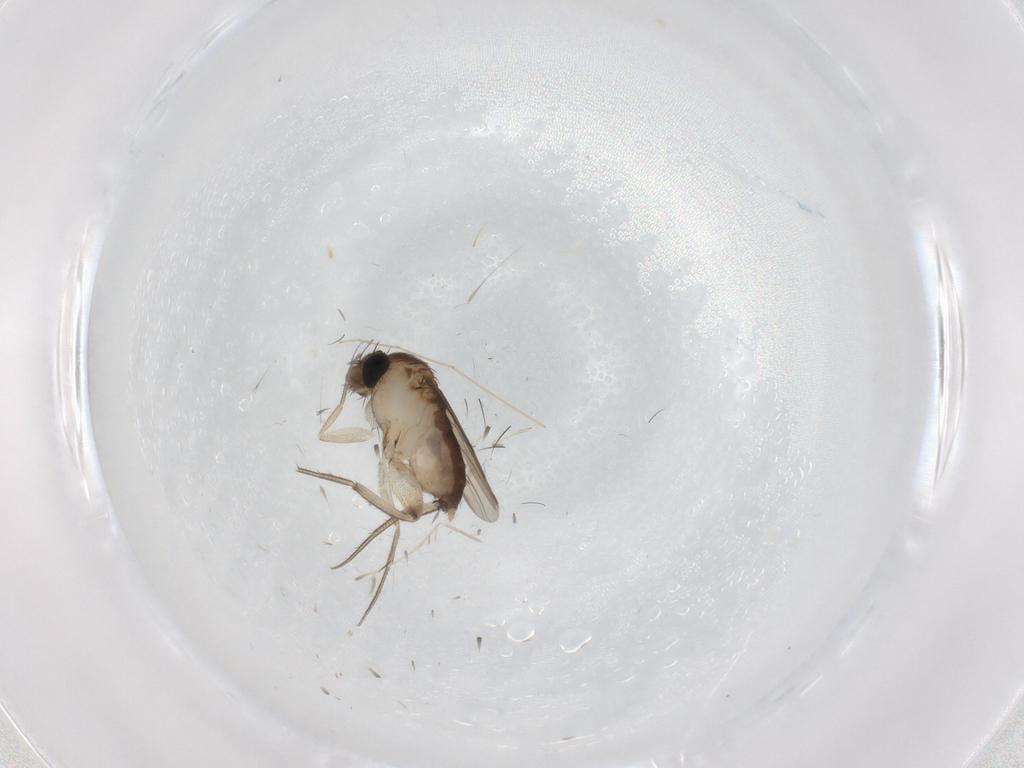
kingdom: Animalia
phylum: Arthropoda
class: Insecta
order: Diptera
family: Phoridae
